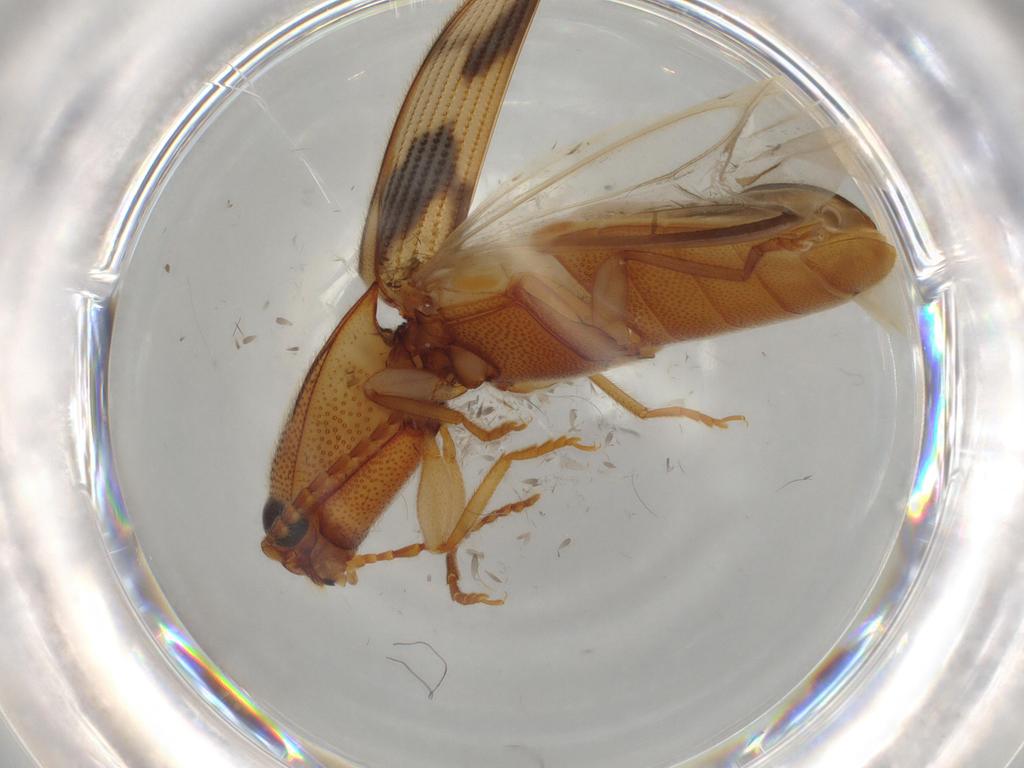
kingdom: Animalia
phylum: Arthropoda
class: Insecta
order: Coleoptera
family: Elateridae
